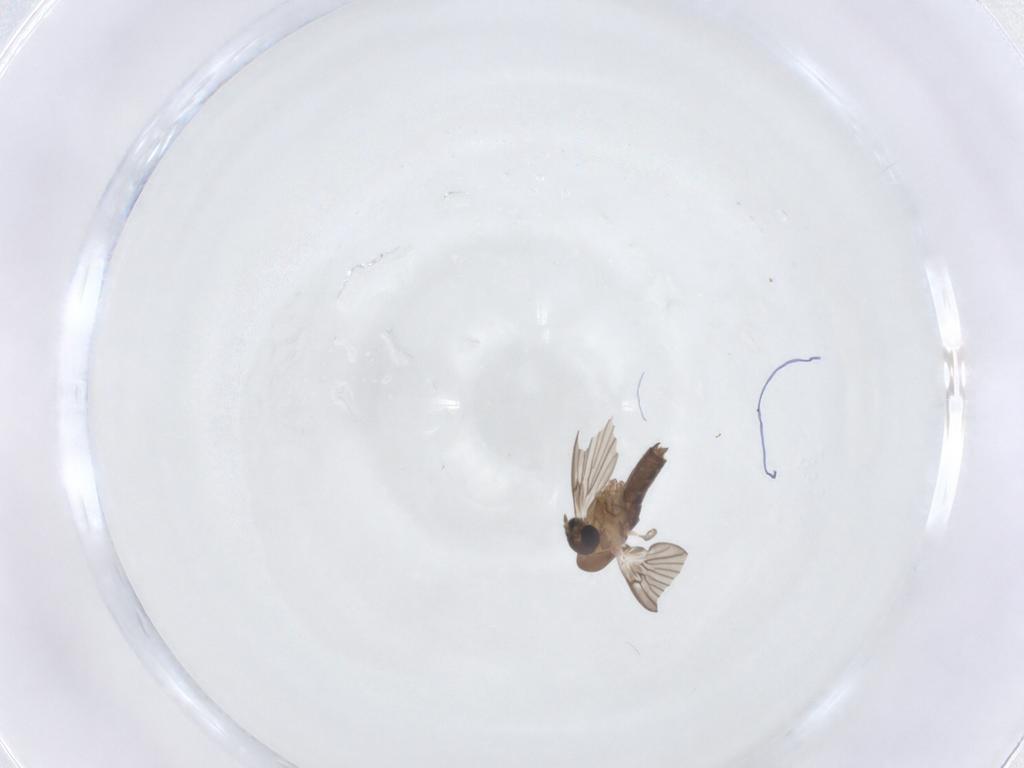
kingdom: Animalia
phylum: Arthropoda
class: Insecta
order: Diptera
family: Psychodidae
